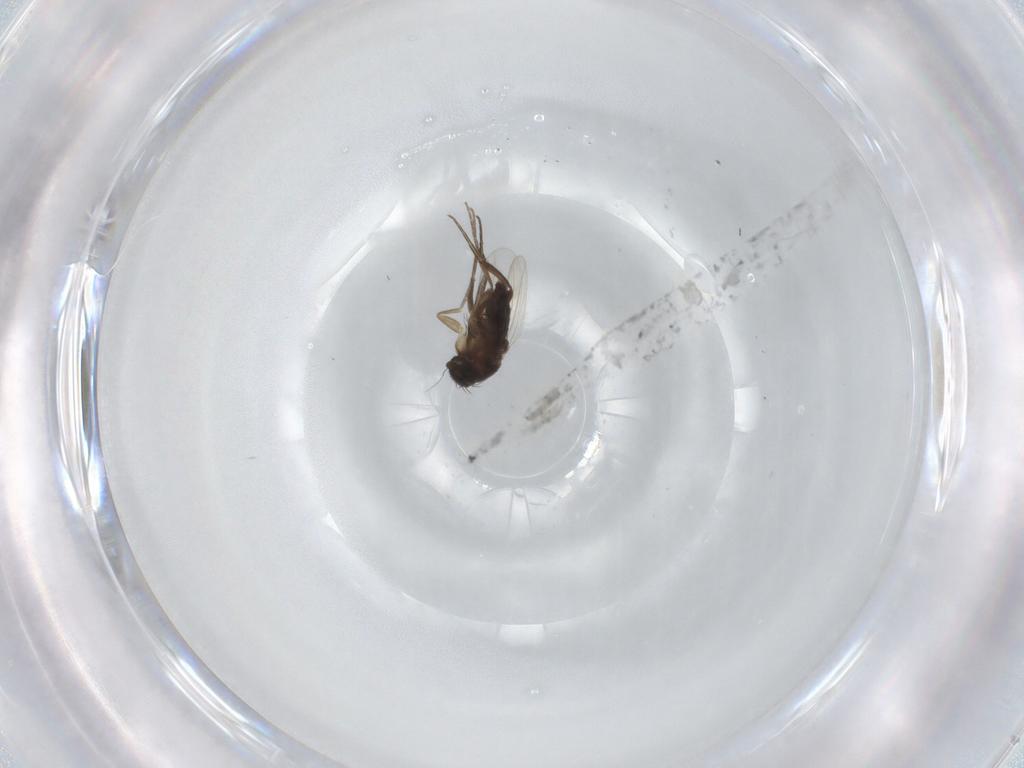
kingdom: Animalia
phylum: Arthropoda
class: Insecta
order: Diptera
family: Phoridae
